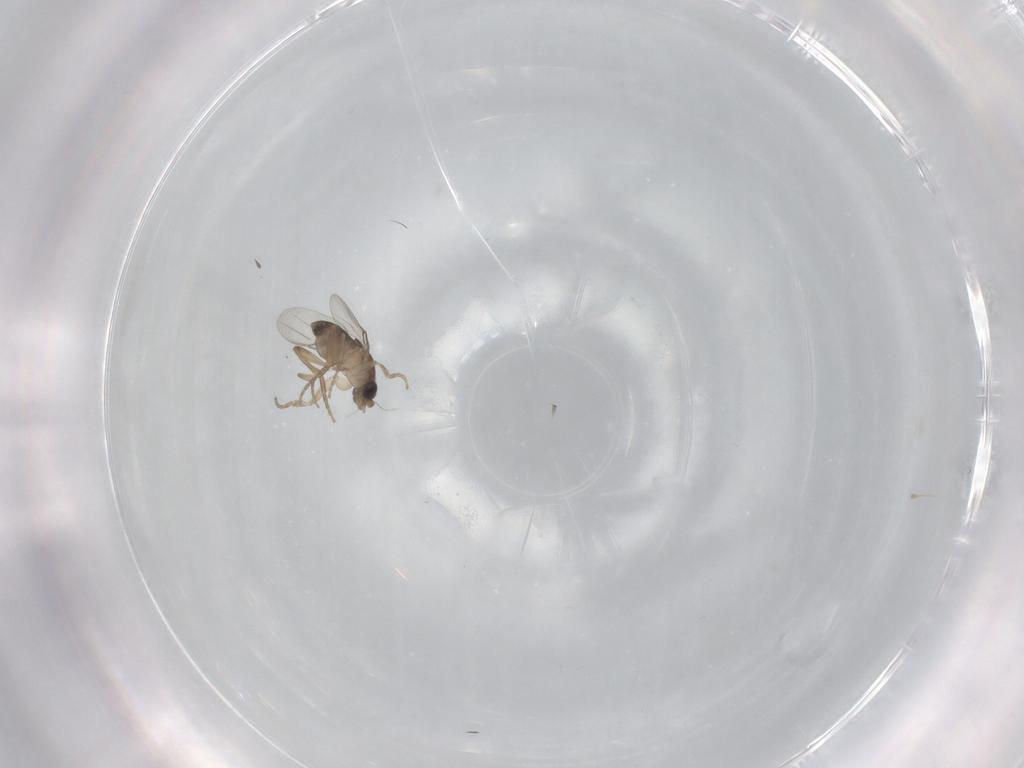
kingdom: Animalia
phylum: Arthropoda
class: Insecta
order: Diptera
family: Phoridae
